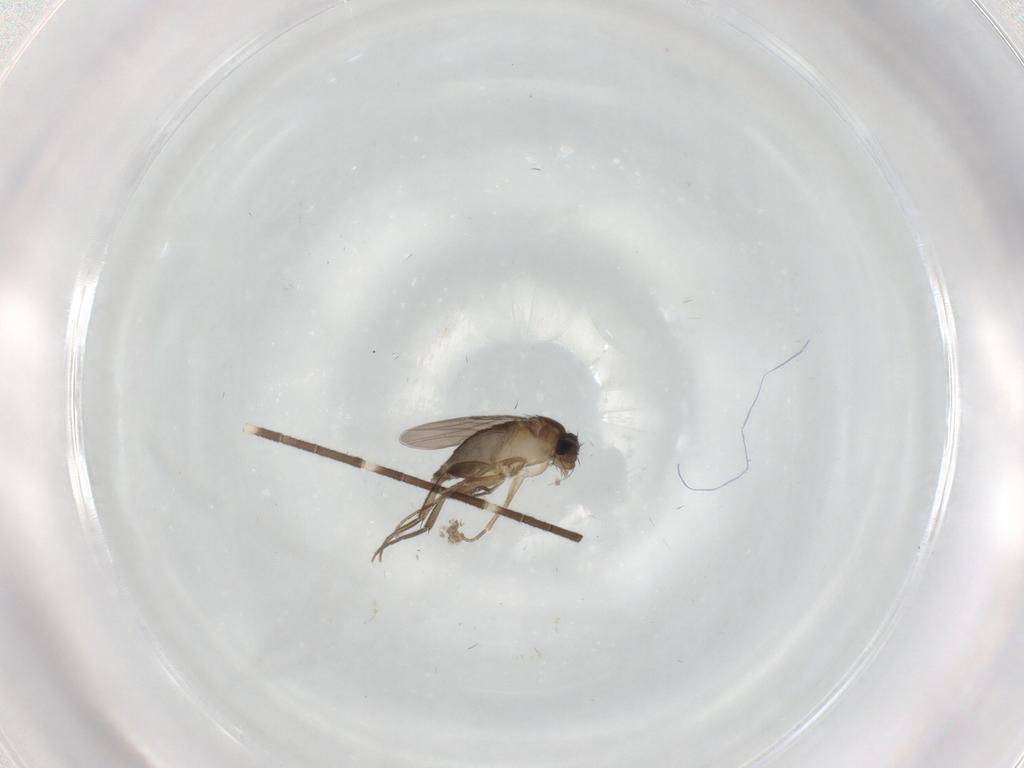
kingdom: Animalia
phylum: Arthropoda
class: Insecta
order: Diptera
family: Phoridae
